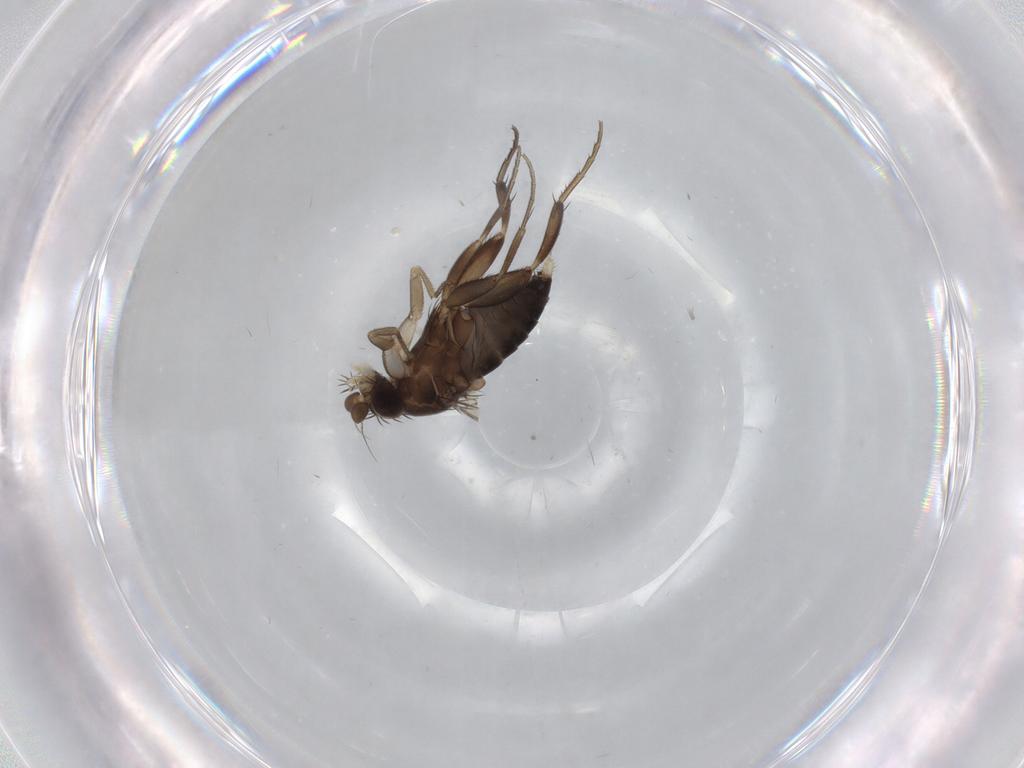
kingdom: Animalia
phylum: Arthropoda
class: Insecta
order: Diptera
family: Phoridae
